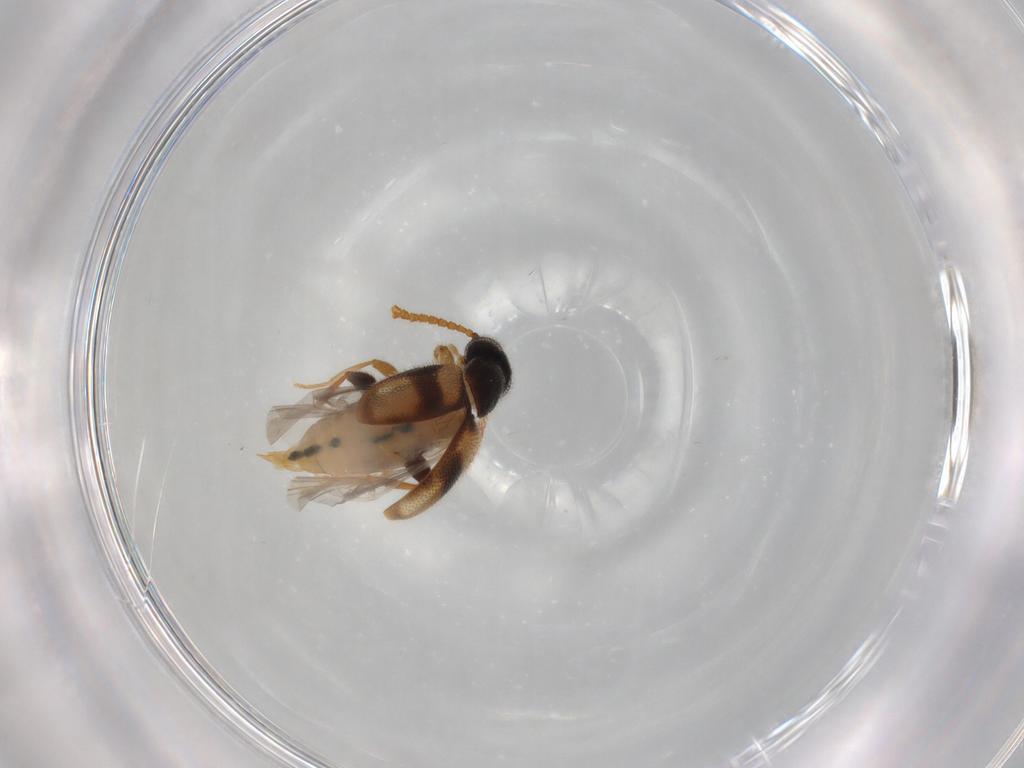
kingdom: Animalia
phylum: Arthropoda
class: Insecta
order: Coleoptera
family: Aderidae
